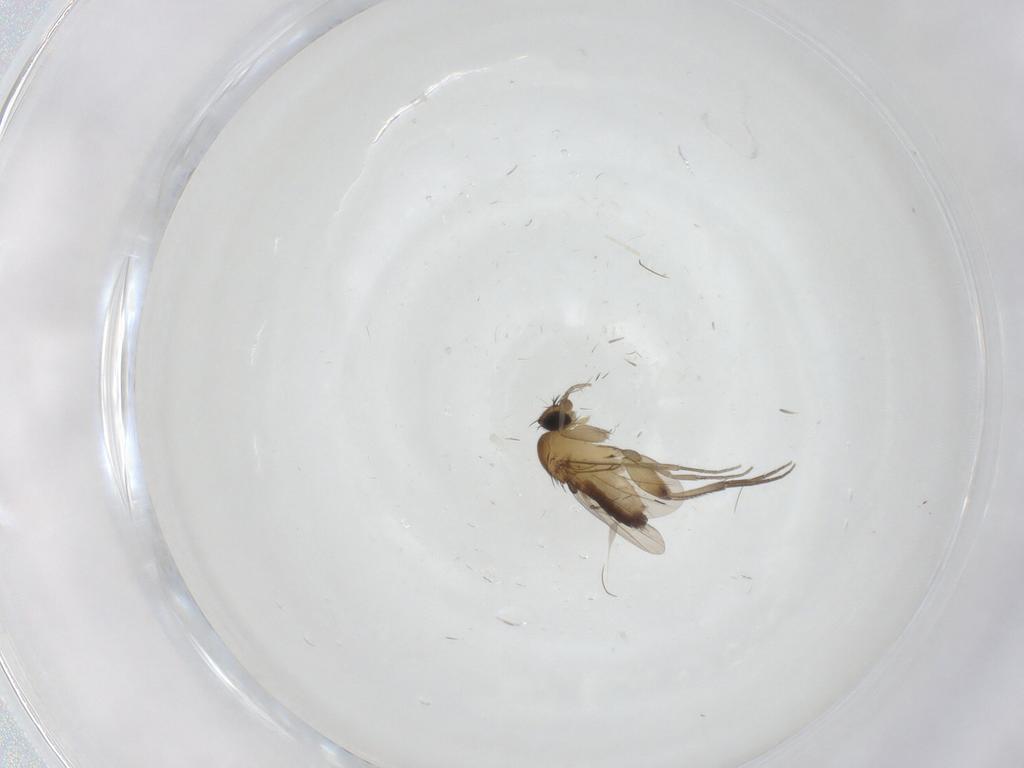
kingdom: Animalia
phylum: Arthropoda
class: Insecta
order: Diptera
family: Phoridae
